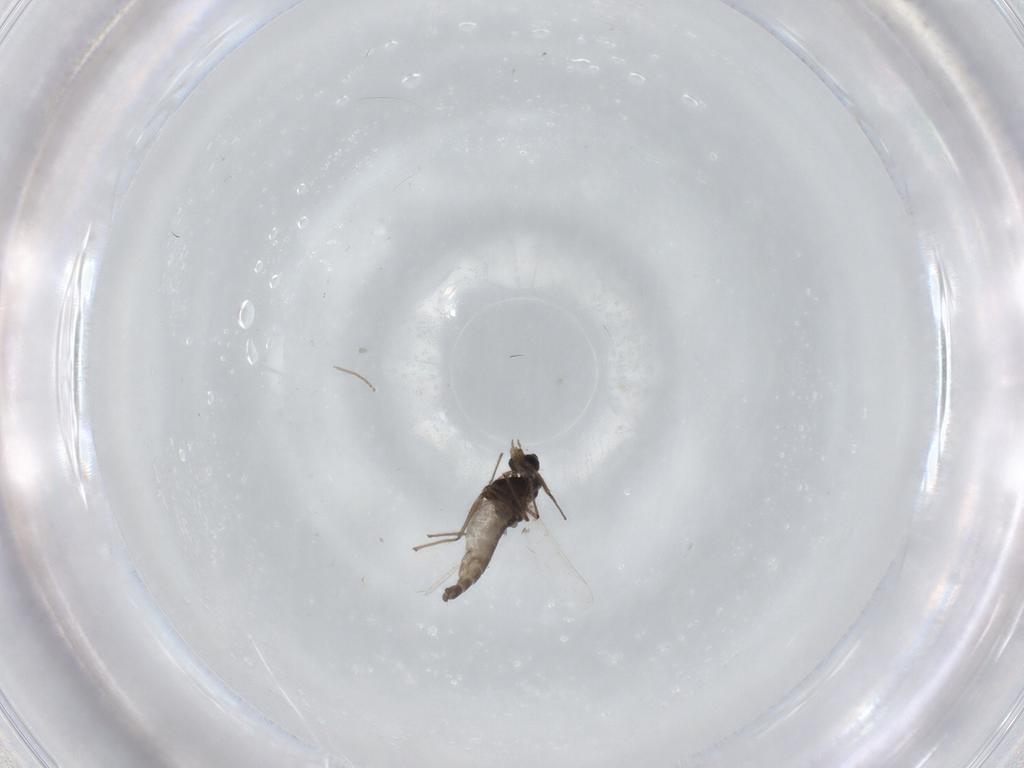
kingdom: Animalia
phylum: Arthropoda
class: Insecta
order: Diptera
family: Chironomidae
